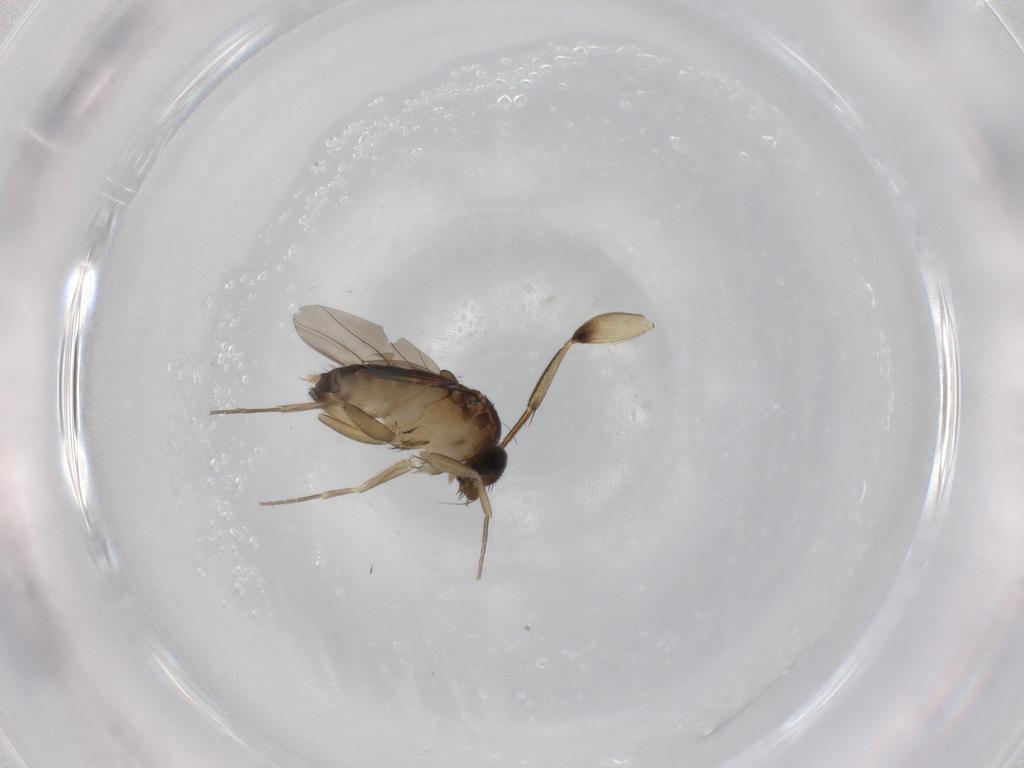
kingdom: Animalia
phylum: Arthropoda
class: Insecta
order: Diptera
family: Phoridae
